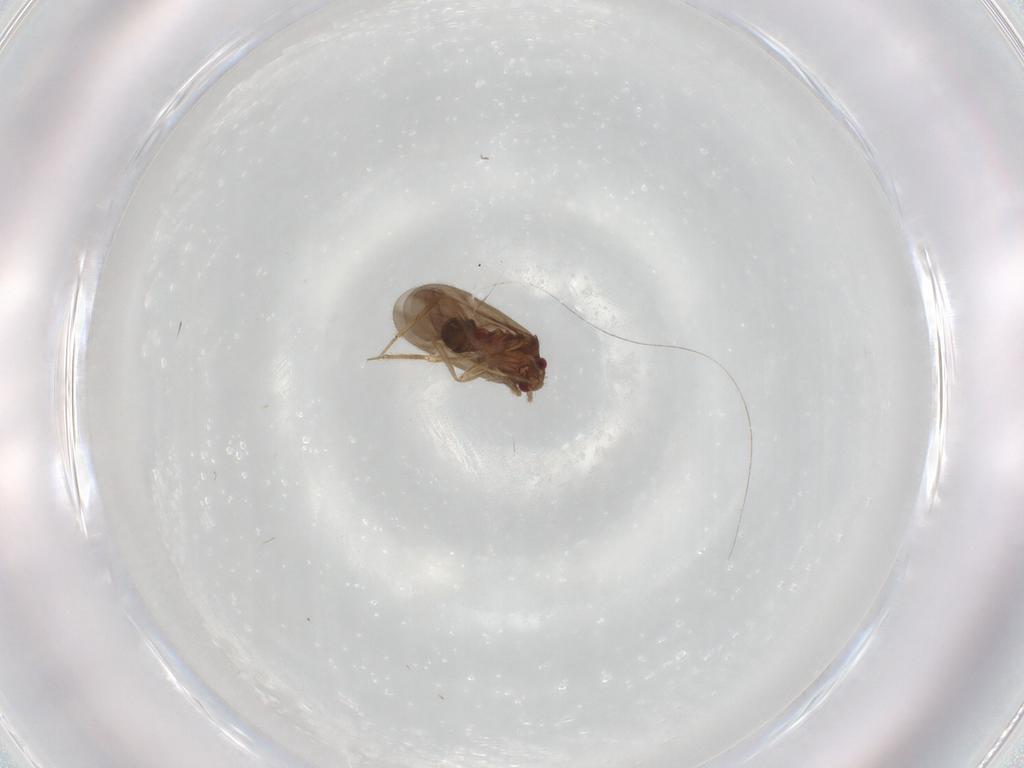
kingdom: Animalia
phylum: Arthropoda
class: Insecta
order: Hemiptera
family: Ceratocombidae
